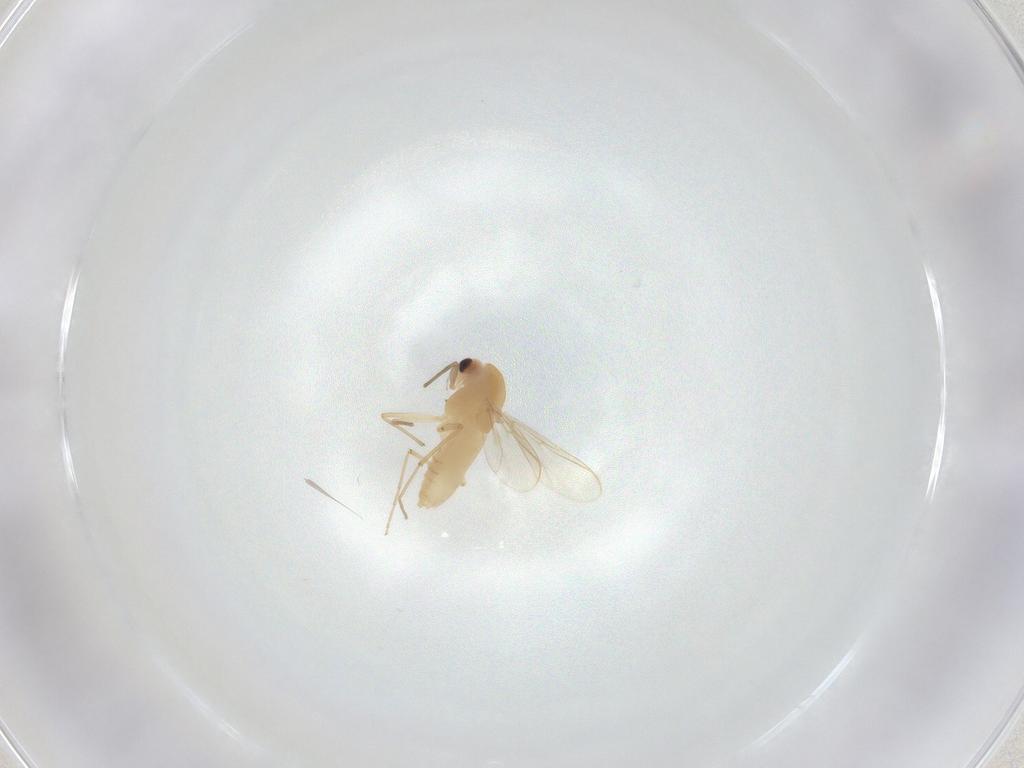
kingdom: Animalia
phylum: Arthropoda
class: Insecta
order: Diptera
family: Chironomidae
